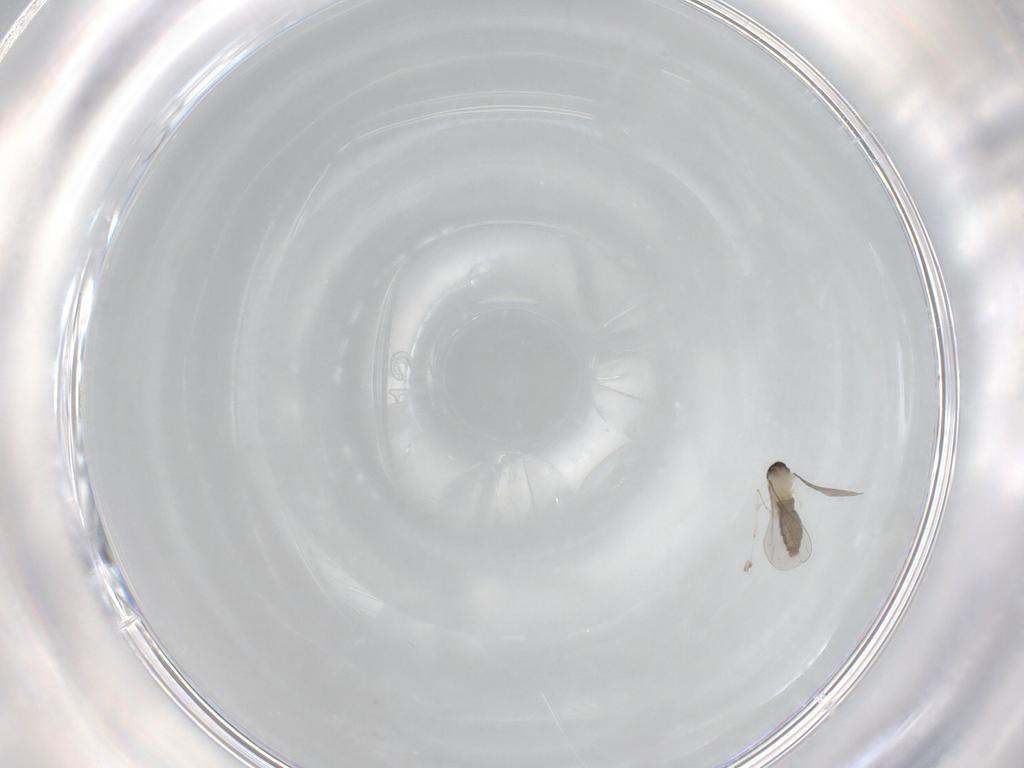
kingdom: Animalia
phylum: Arthropoda
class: Insecta
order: Diptera
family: Cecidomyiidae
